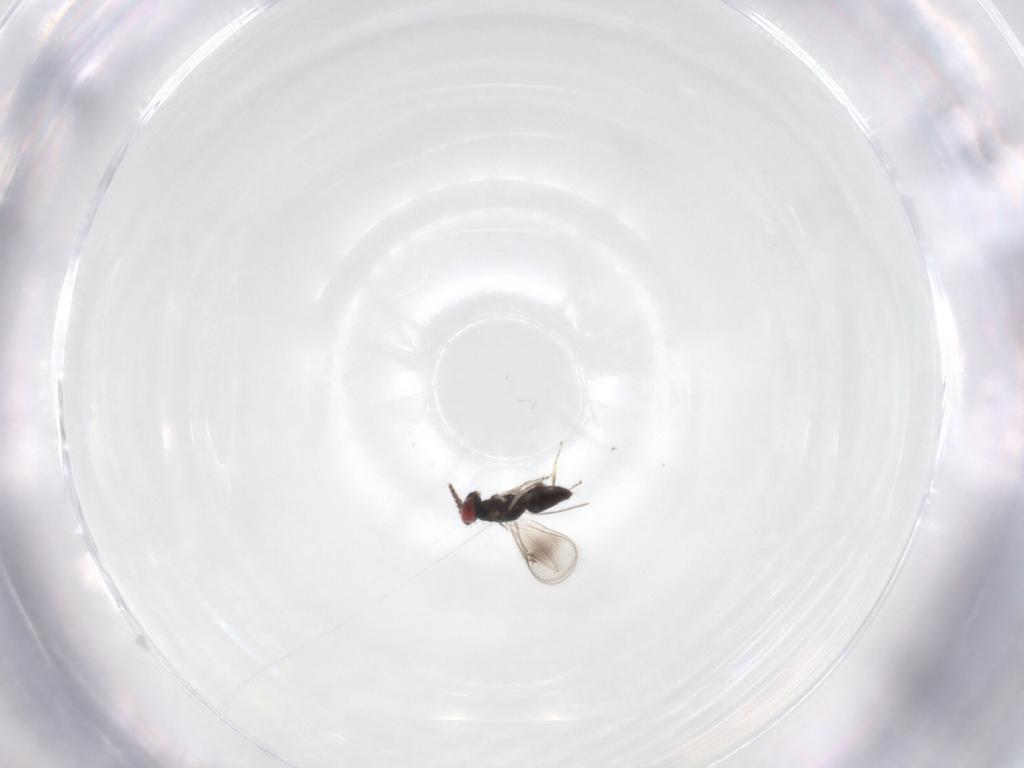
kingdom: Animalia
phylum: Arthropoda
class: Insecta
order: Hymenoptera
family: Eulophidae
